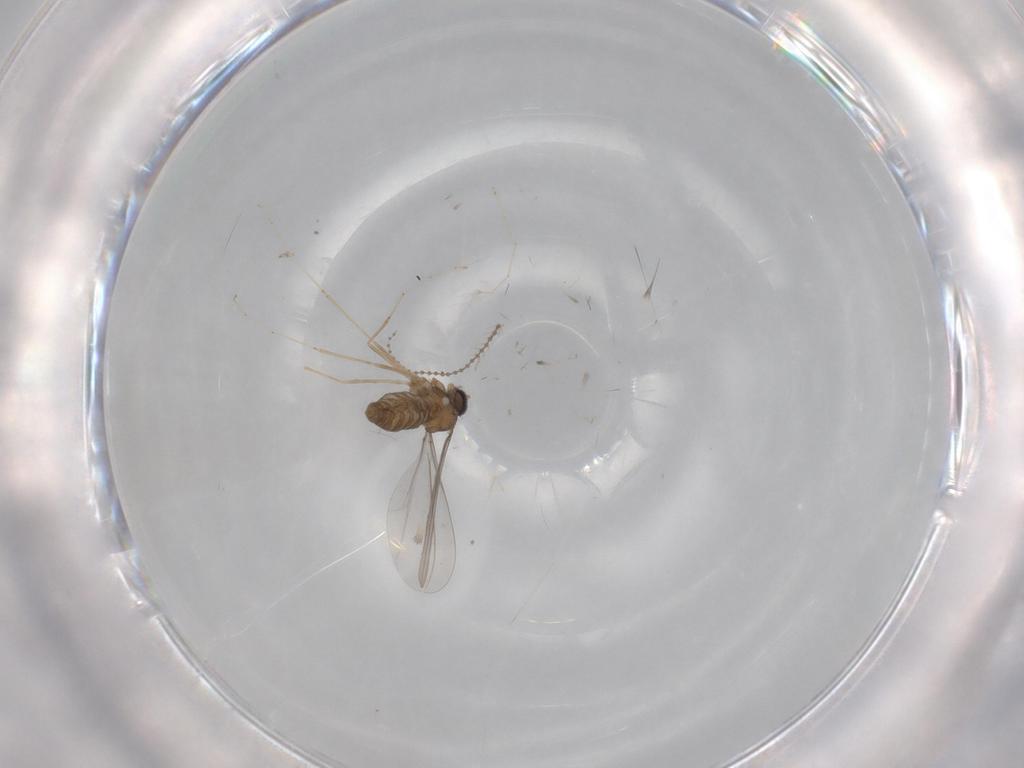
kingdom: Animalia
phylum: Arthropoda
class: Insecta
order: Diptera
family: Cecidomyiidae
